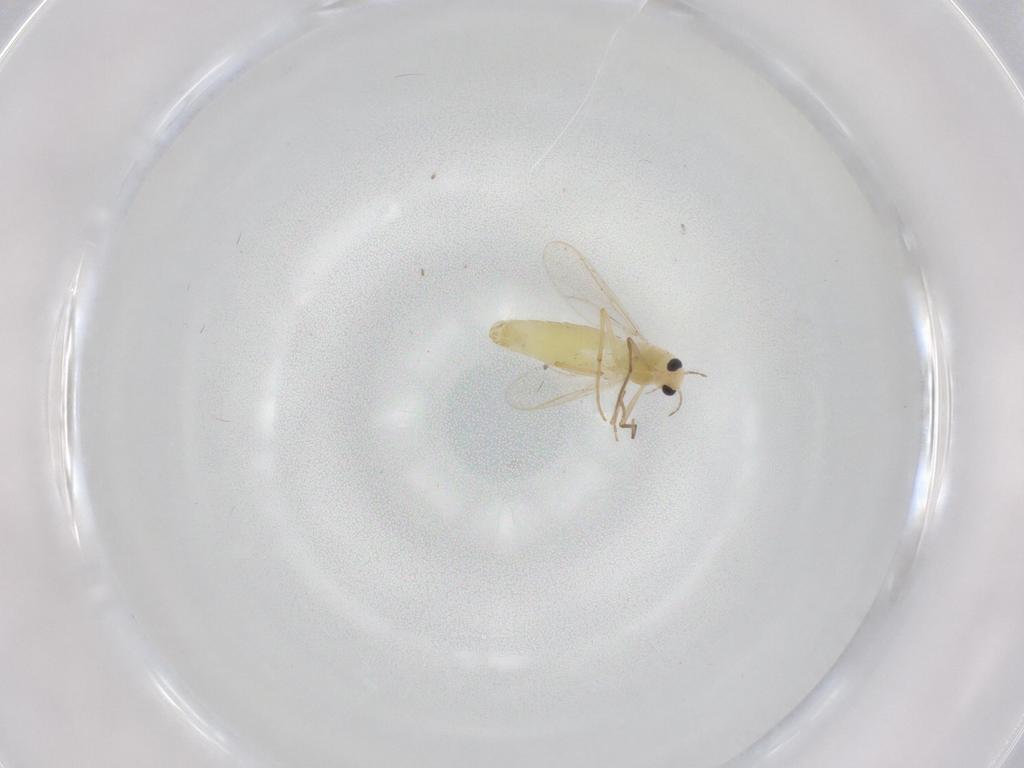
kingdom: Animalia
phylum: Arthropoda
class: Insecta
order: Diptera
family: Chironomidae
